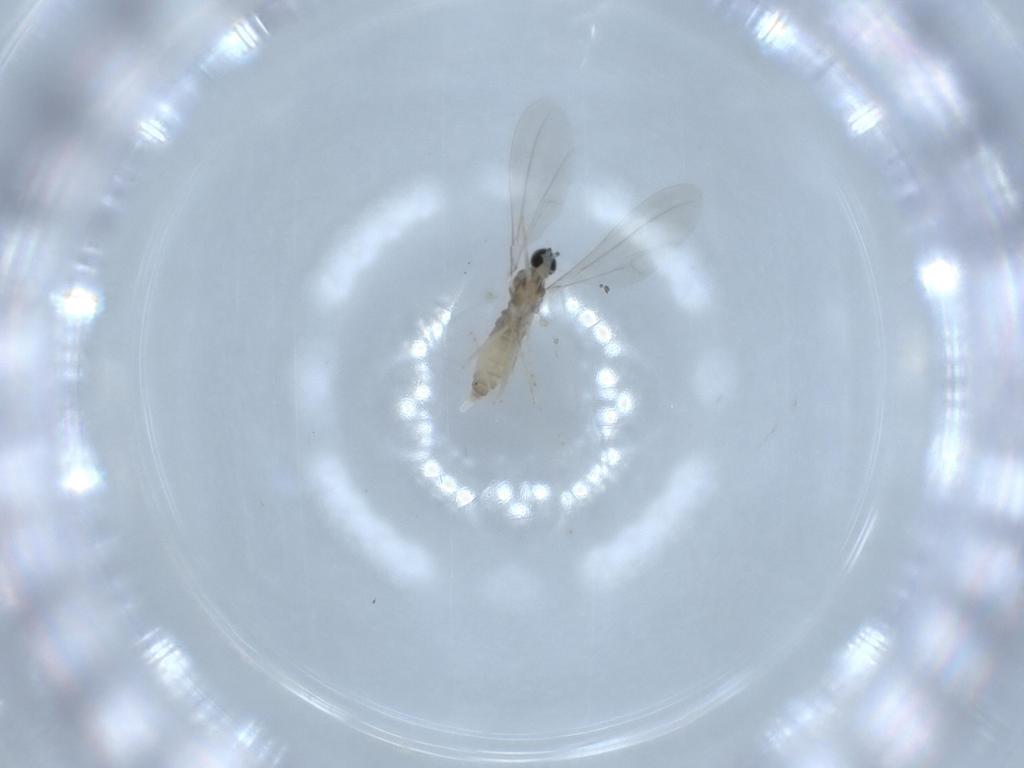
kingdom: Animalia
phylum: Arthropoda
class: Insecta
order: Diptera
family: Cecidomyiidae
